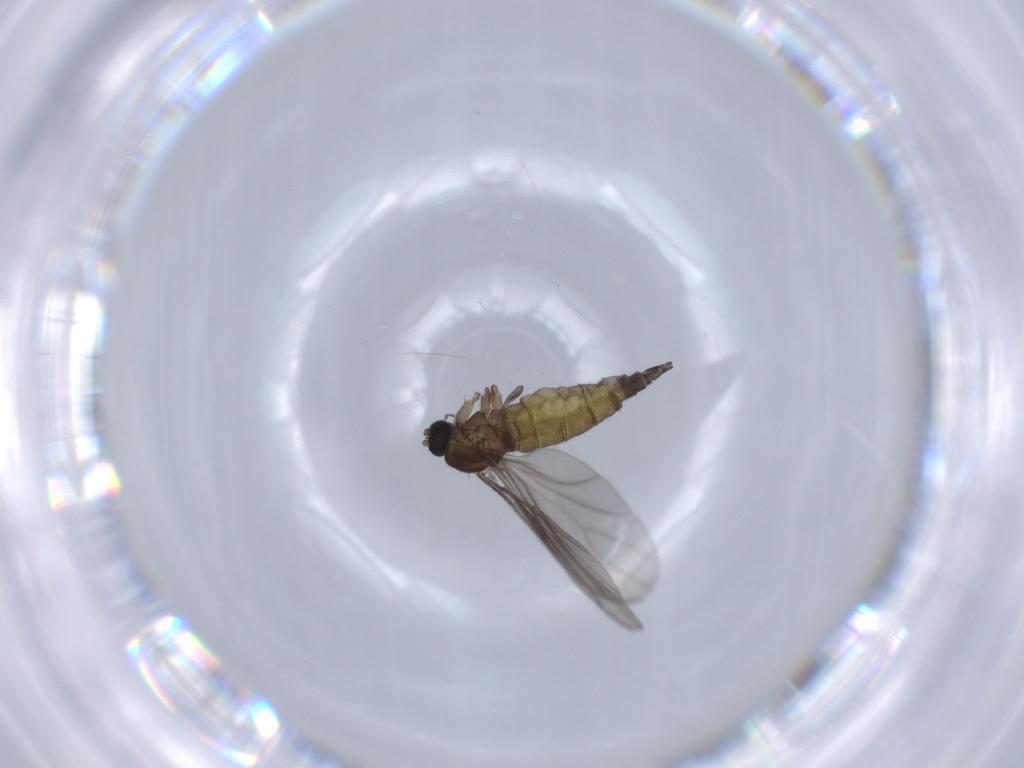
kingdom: Animalia
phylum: Arthropoda
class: Insecta
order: Diptera
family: Sciaridae
